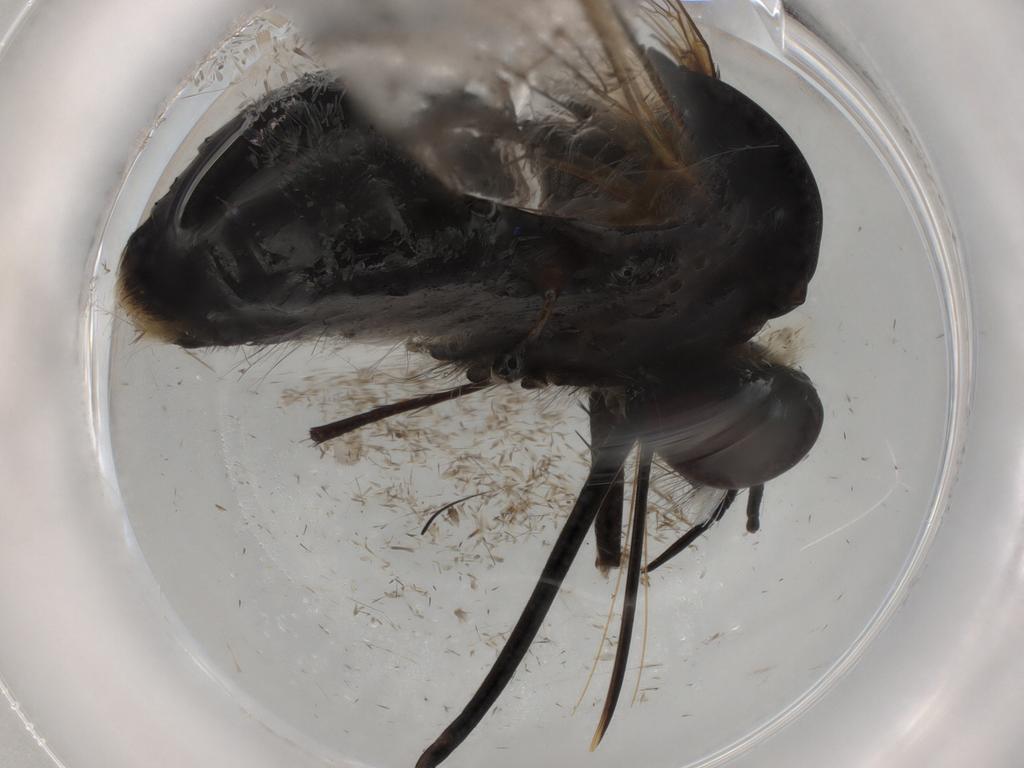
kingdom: Animalia
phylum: Arthropoda
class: Insecta
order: Diptera
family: Bombyliidae
